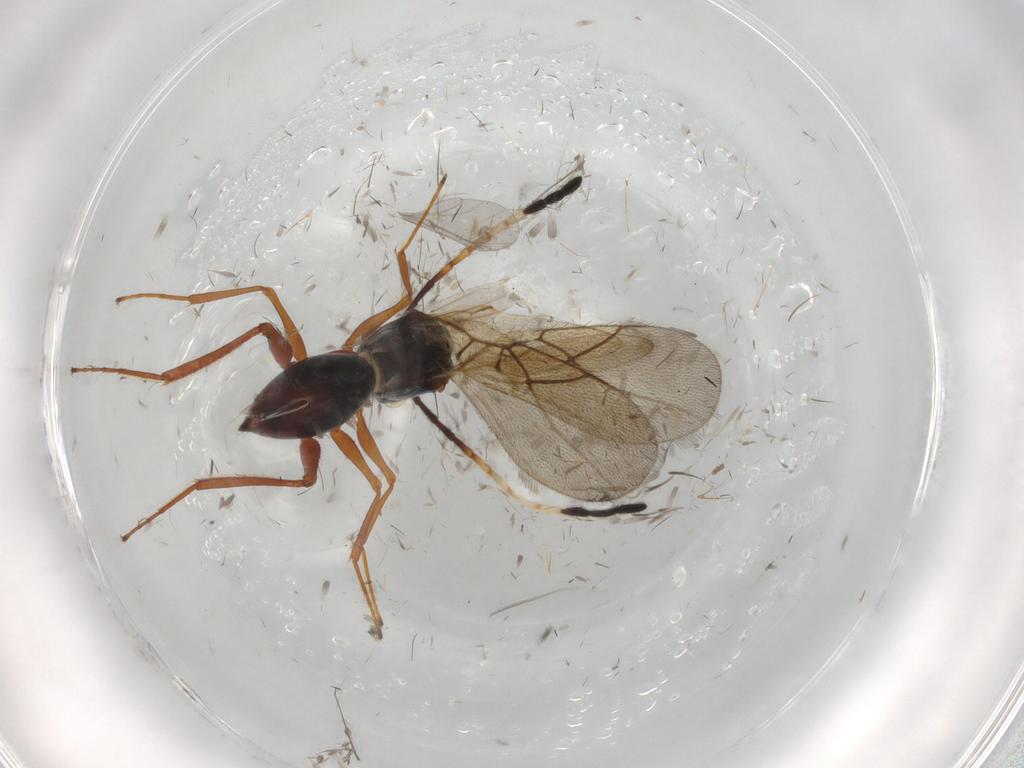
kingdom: Animalia
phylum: Arthropoda
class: Insecta
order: Hymenoptera
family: Figitidae
